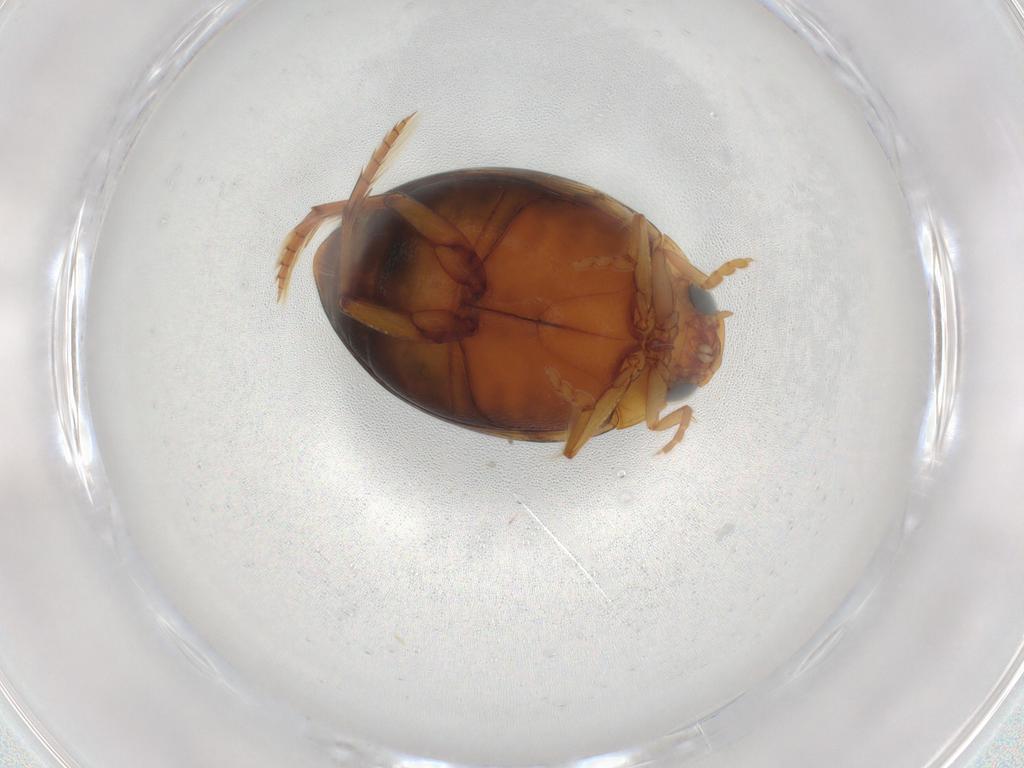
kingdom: Animalia
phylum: Arthropoda
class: Insecta
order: Coleoptera
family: Dytiscidae
